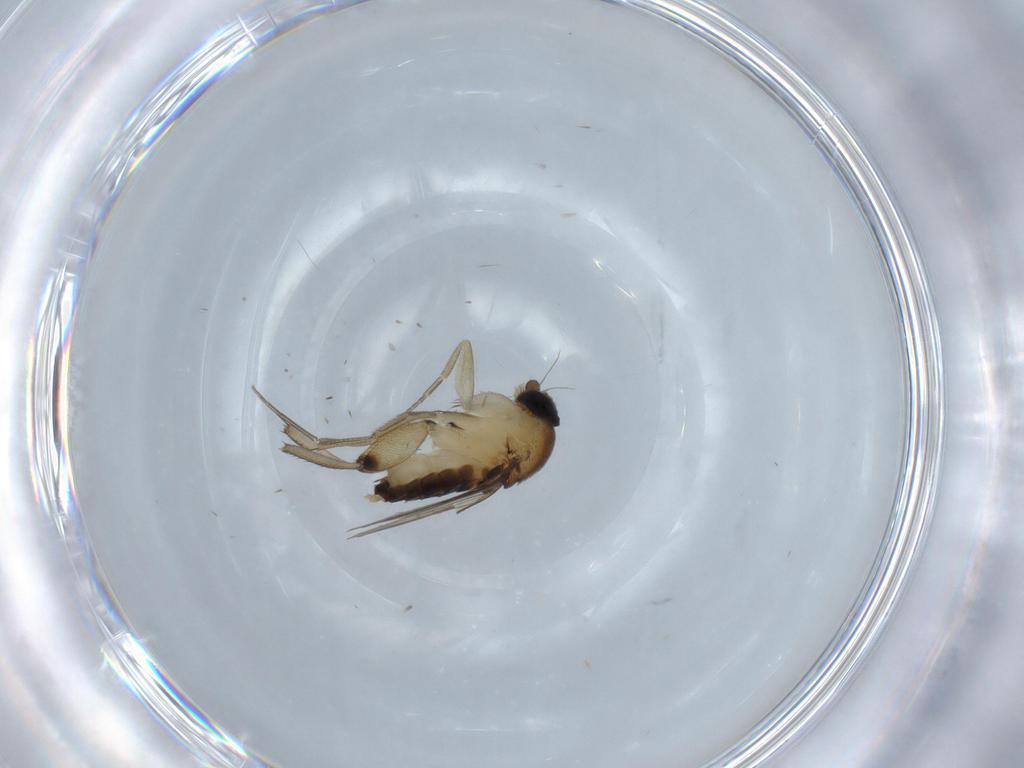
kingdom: Animalia
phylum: Arthropoda
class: Insecta
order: Diptera
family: Phoridae
